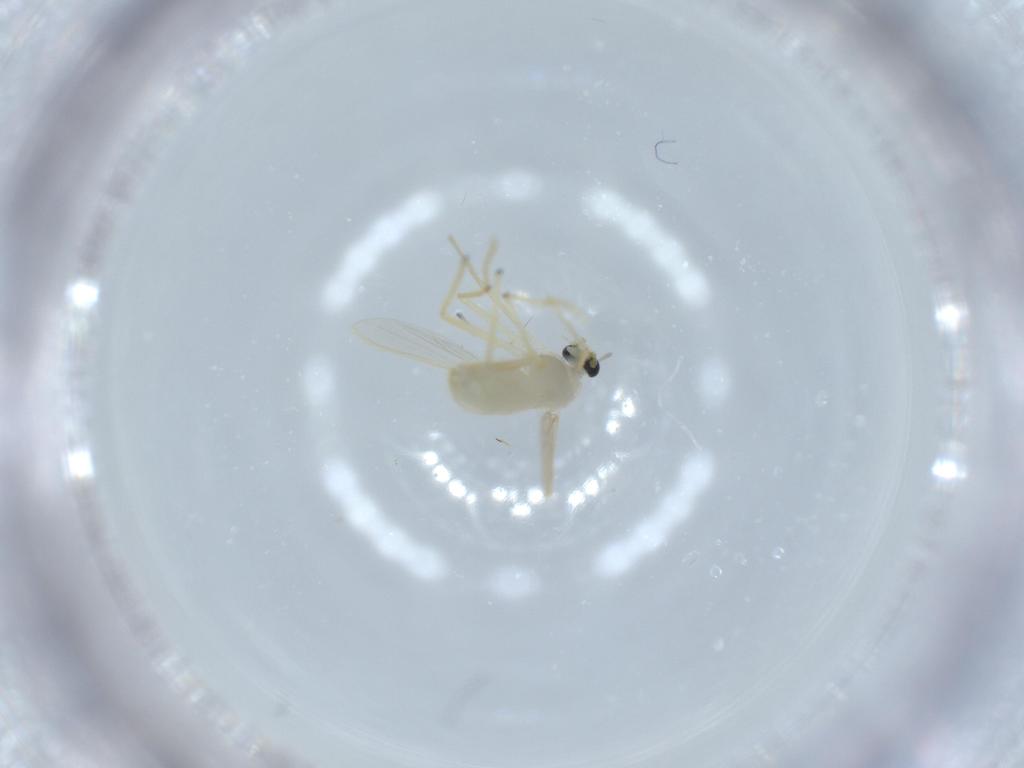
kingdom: Animalia
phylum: Arthropoda
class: Insecta
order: Diptera
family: Chironomidae
